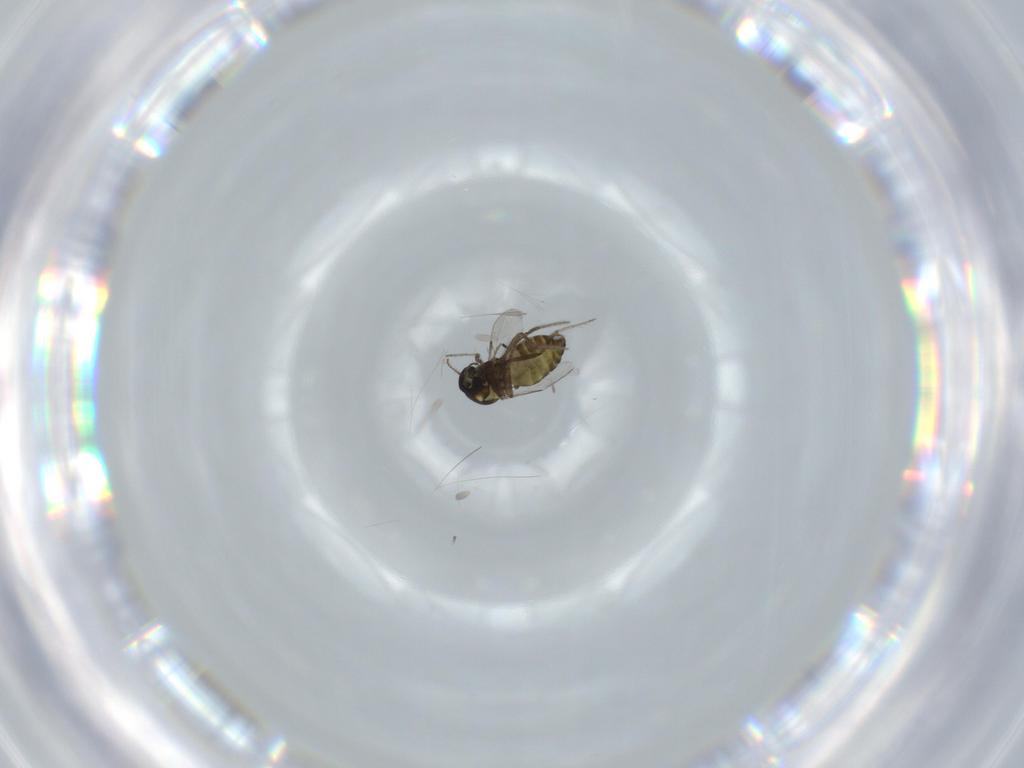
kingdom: Animalia
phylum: Arthropoda
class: Insecta
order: Diptera
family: Ceratopogonidae
